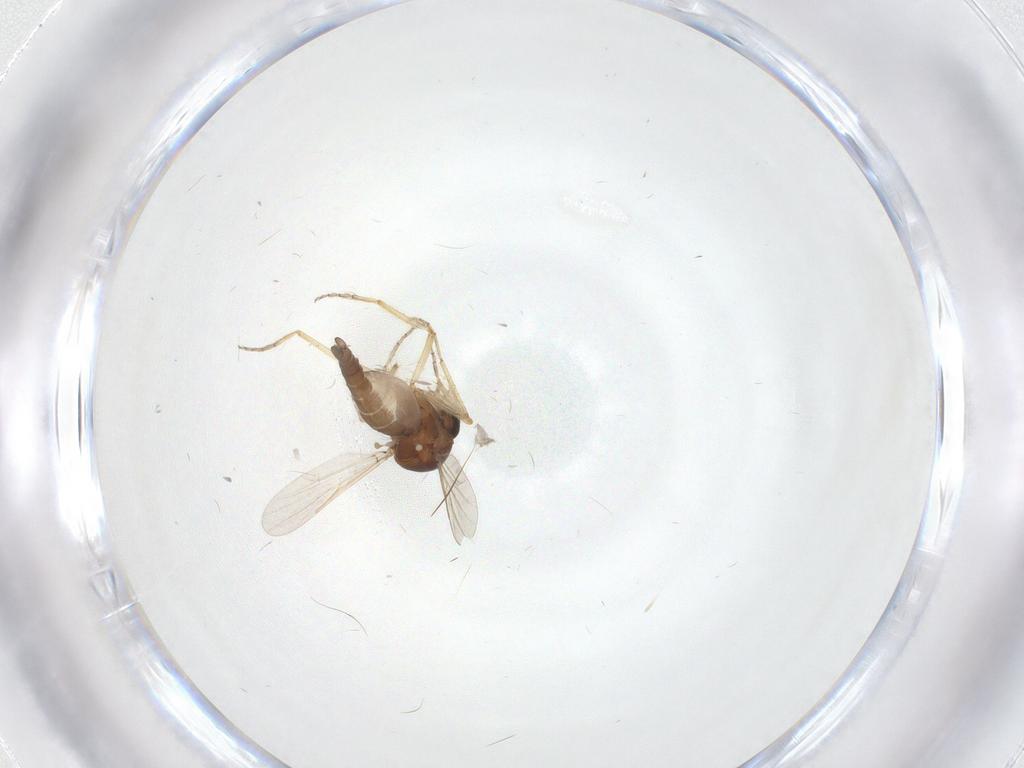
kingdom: Animalia
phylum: Arthropoda
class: Insecta
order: Diptera
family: Ceratopogonidae
